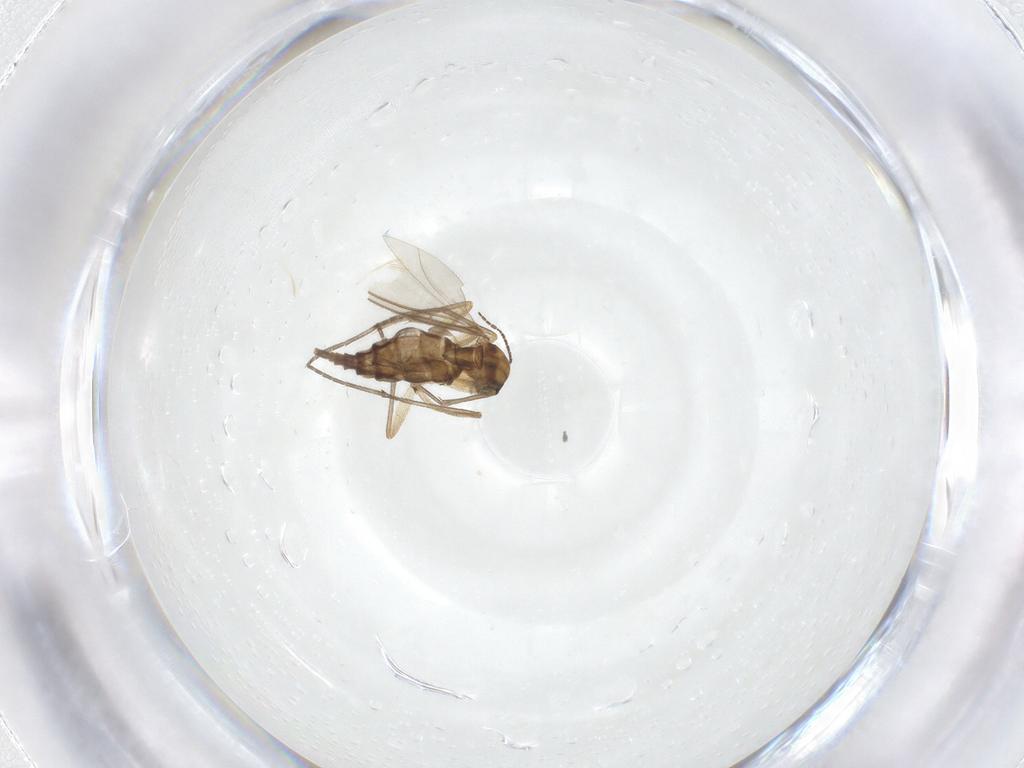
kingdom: Animalia
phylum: Arthropoda
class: Insecta
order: Diptera
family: Sciaridae
